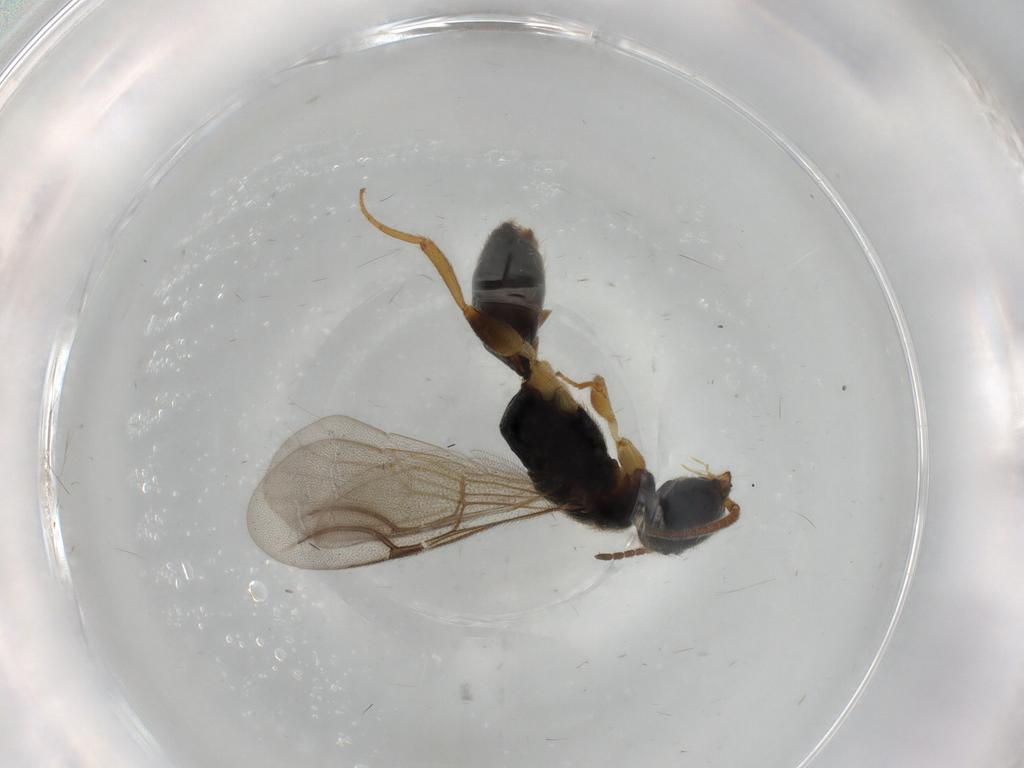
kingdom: Animalia
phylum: Arthropoda
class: Insecta
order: Hymenoptera
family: Bethylidae
